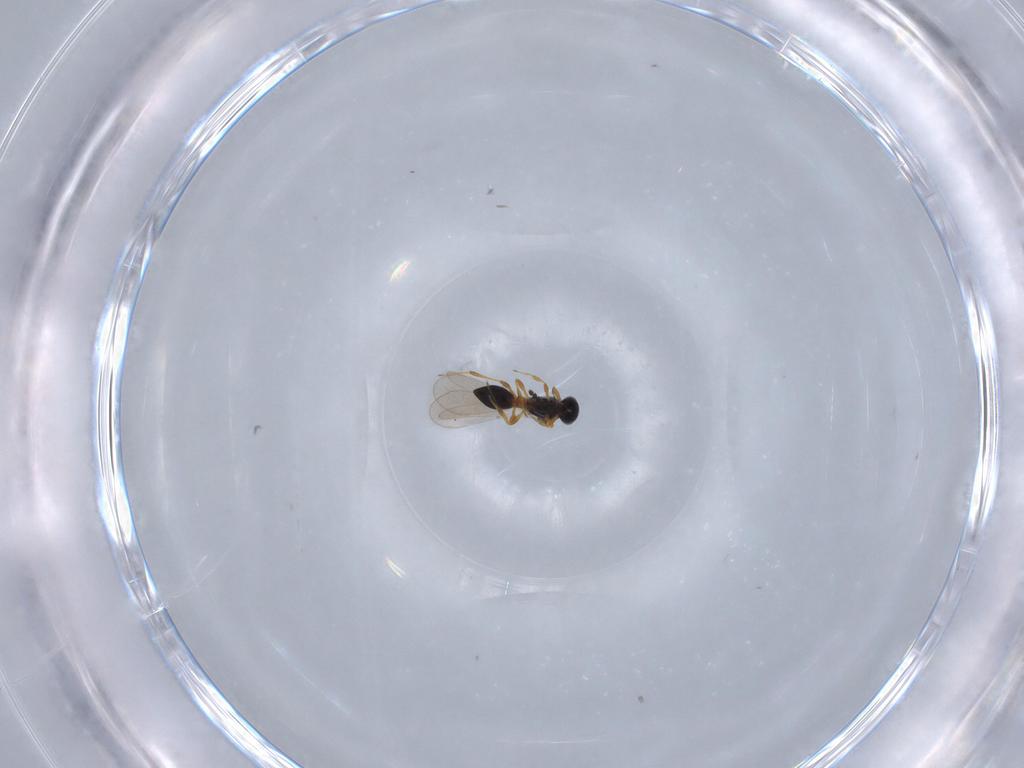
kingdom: Animalia
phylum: Arthropoda
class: Insecta
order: Hymenoptera
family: Platygastridae
